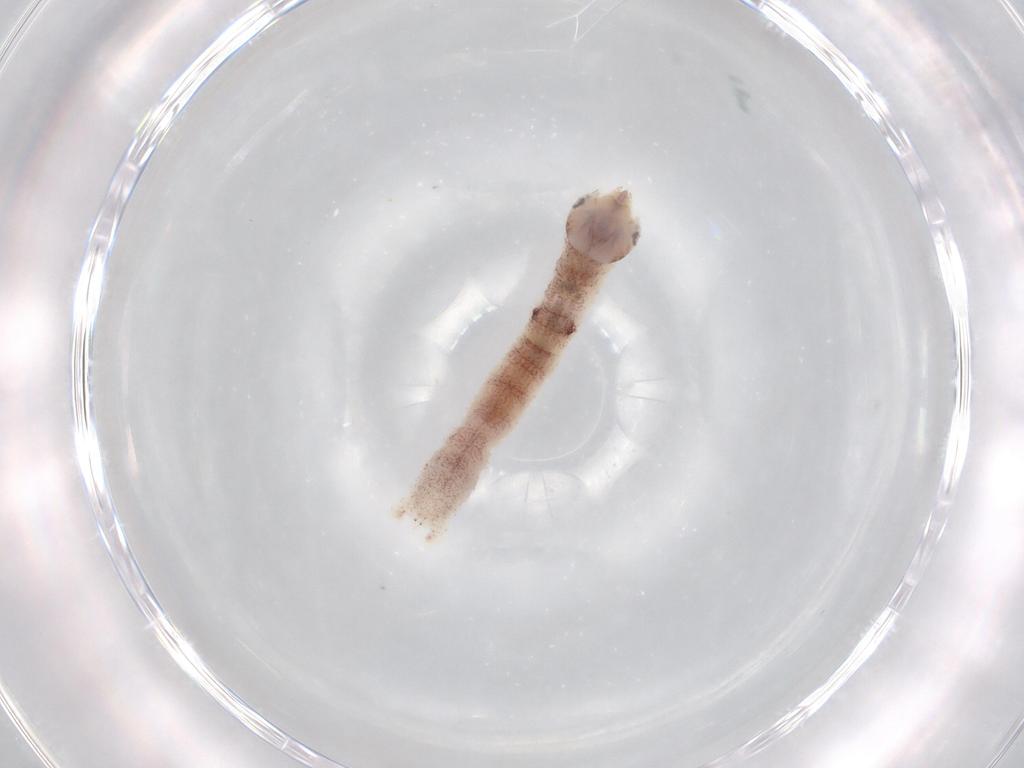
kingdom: Animalia
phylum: Arthropoda
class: Insecta
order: Lepidoptera
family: Geometridae
